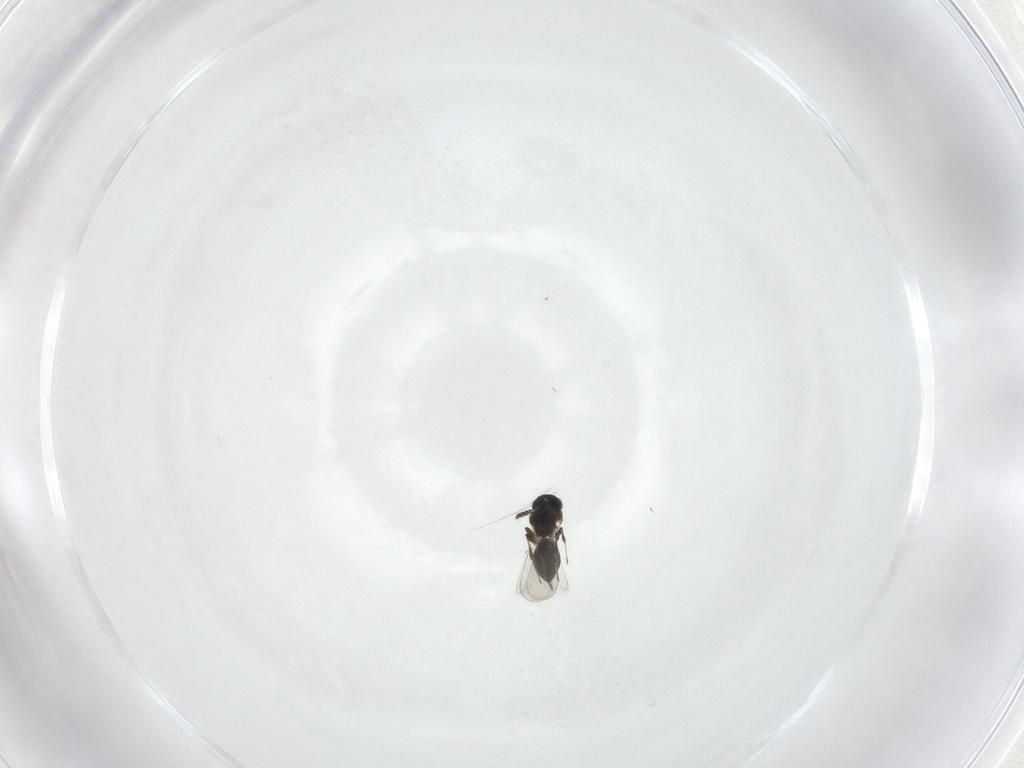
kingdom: Animalia
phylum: Arthropoda
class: Insecta
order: Hymenoptera
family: Platygastridae
